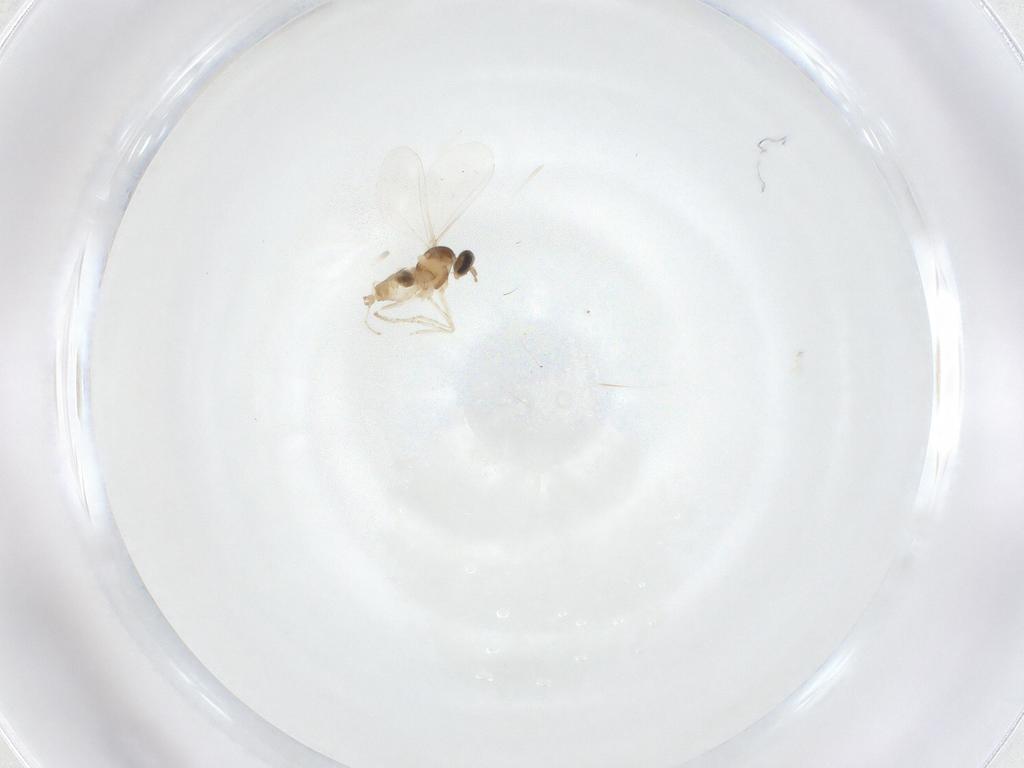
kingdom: Animalia
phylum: Arthropoda
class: Insecta
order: Diptera
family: Cecidomyiidae
